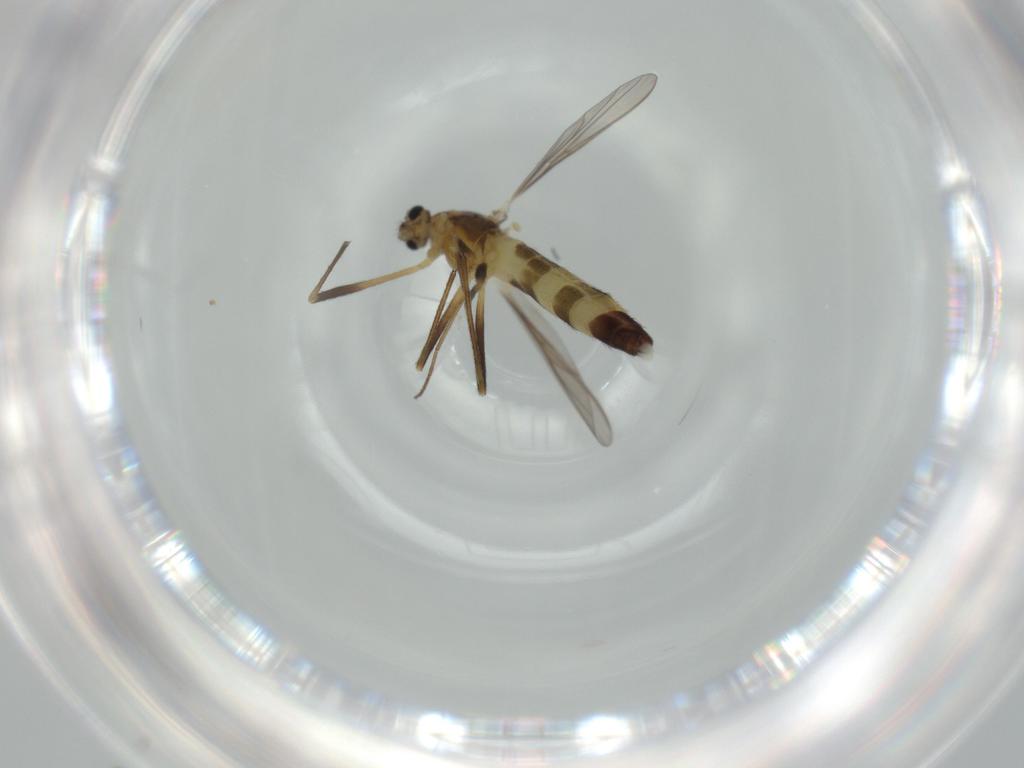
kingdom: Animalia
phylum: Arthropoda
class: Insecta
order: Diptera
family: Chironomidae
